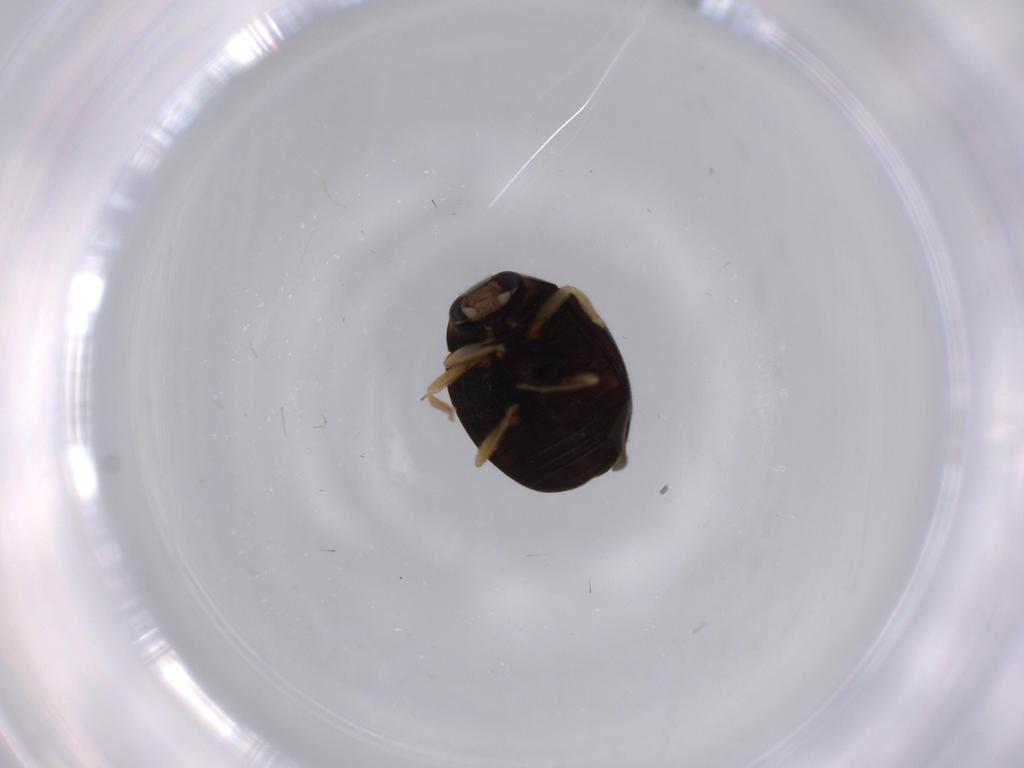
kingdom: Animalia
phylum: Arthropoda
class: Insecta
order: Coleoptera
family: Coccinellidae
